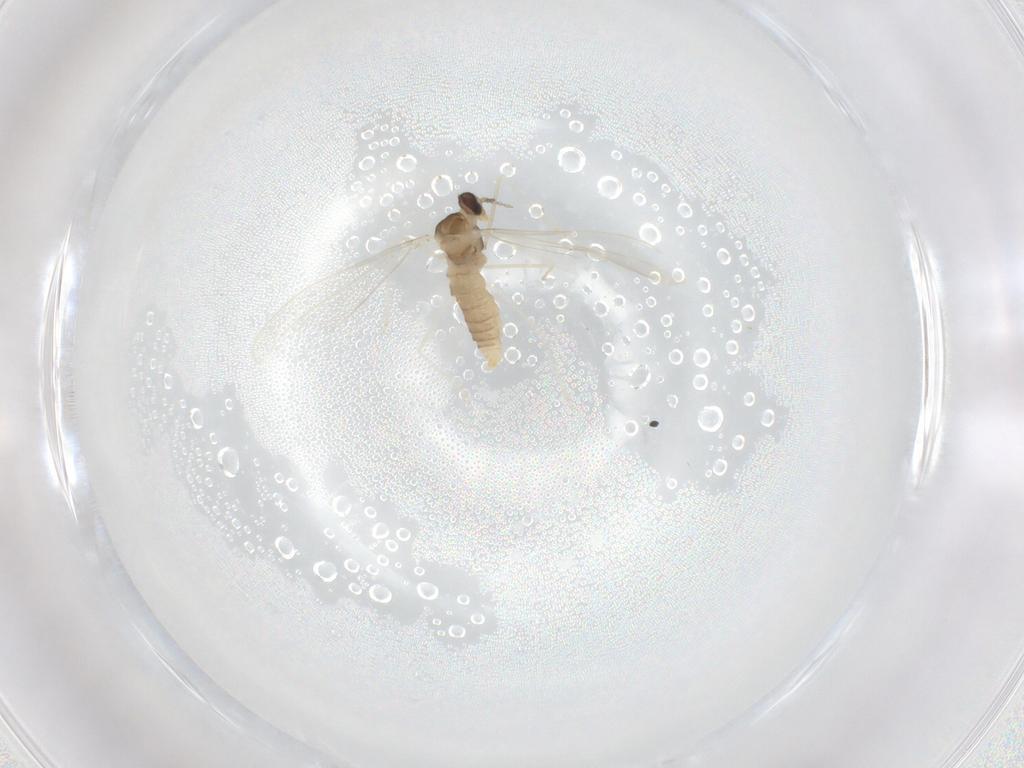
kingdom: Animalia
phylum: Arthropoda
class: Insecta
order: Diptera
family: Cecidomyiidae
